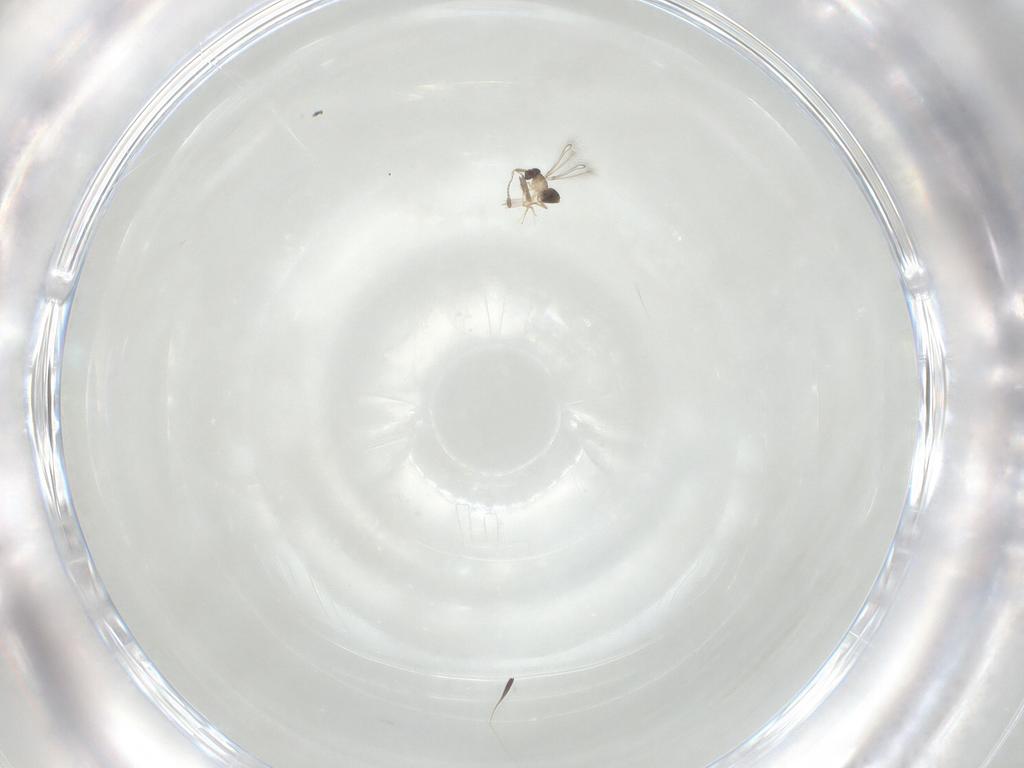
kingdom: Animalia
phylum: Arthropoda
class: Insecta
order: Hymenoptera
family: Mymaridae
